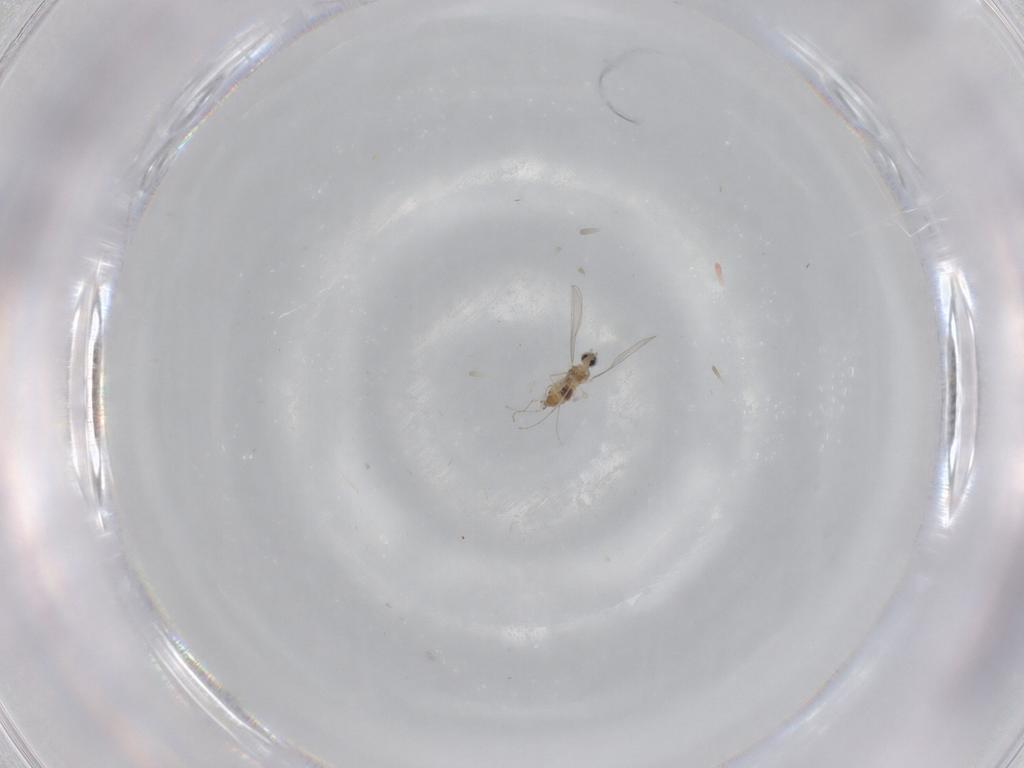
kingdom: Animalia
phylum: Arthropoda
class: Insecta
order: Diptera
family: Cecidomyiidae
